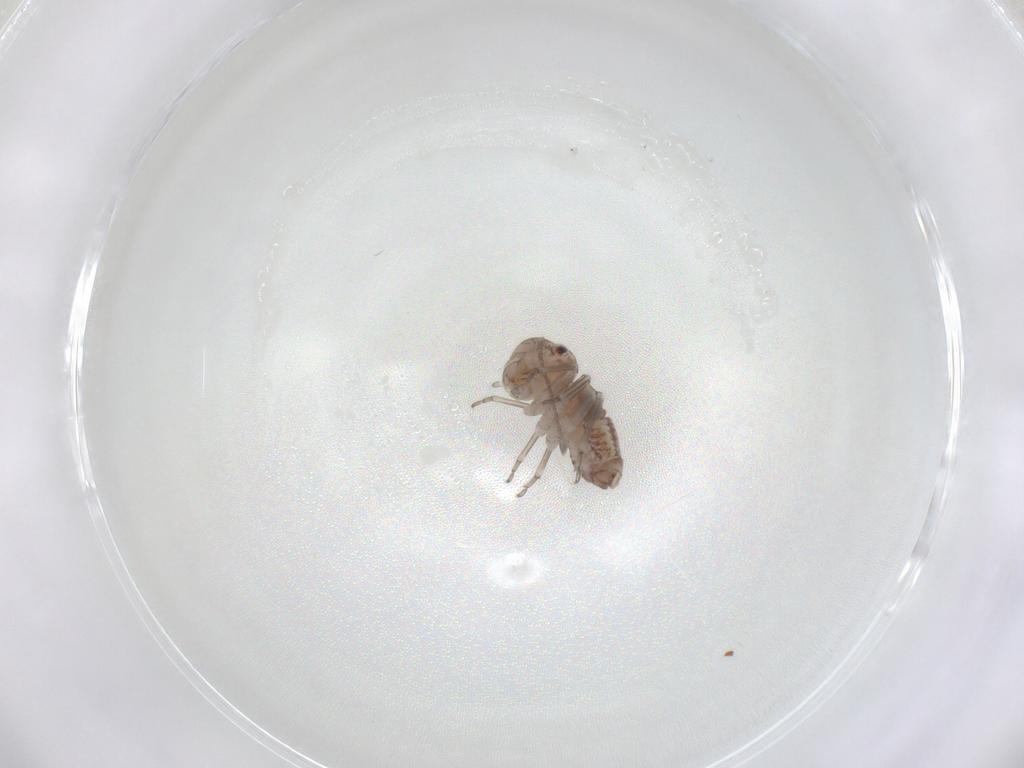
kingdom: Animalia
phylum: Arthropoda
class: Insecta
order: Psocodea
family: Psocidae
